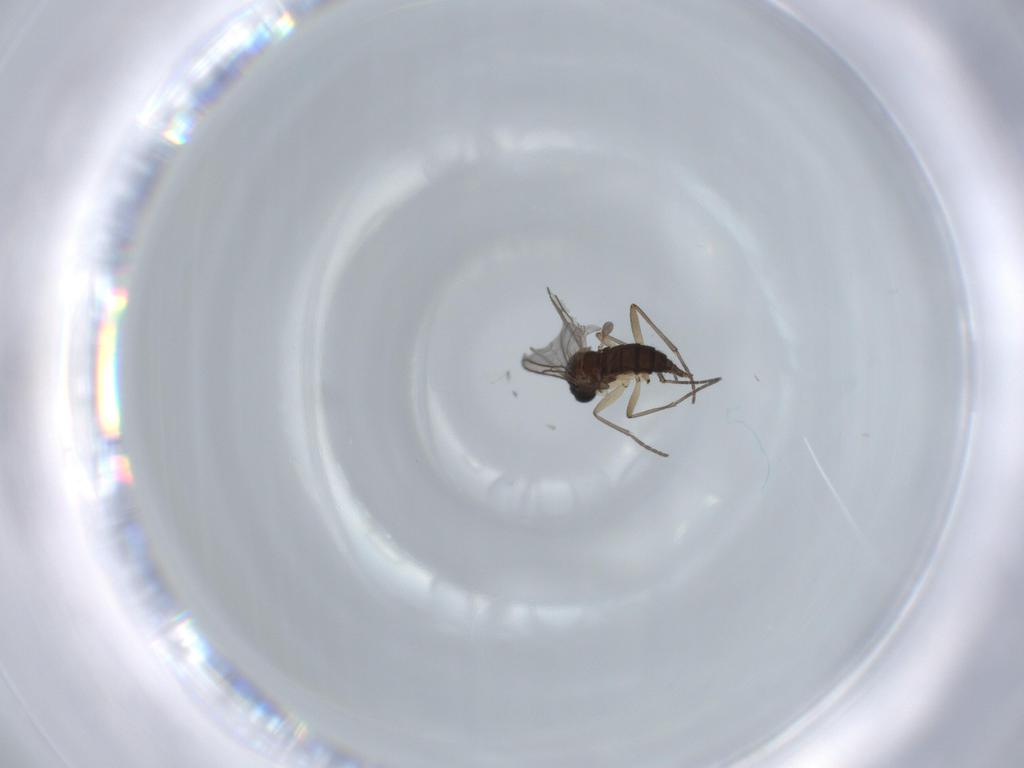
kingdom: Animalia
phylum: Arthropoda
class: Insecta
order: Diptera
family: Sciaridae
